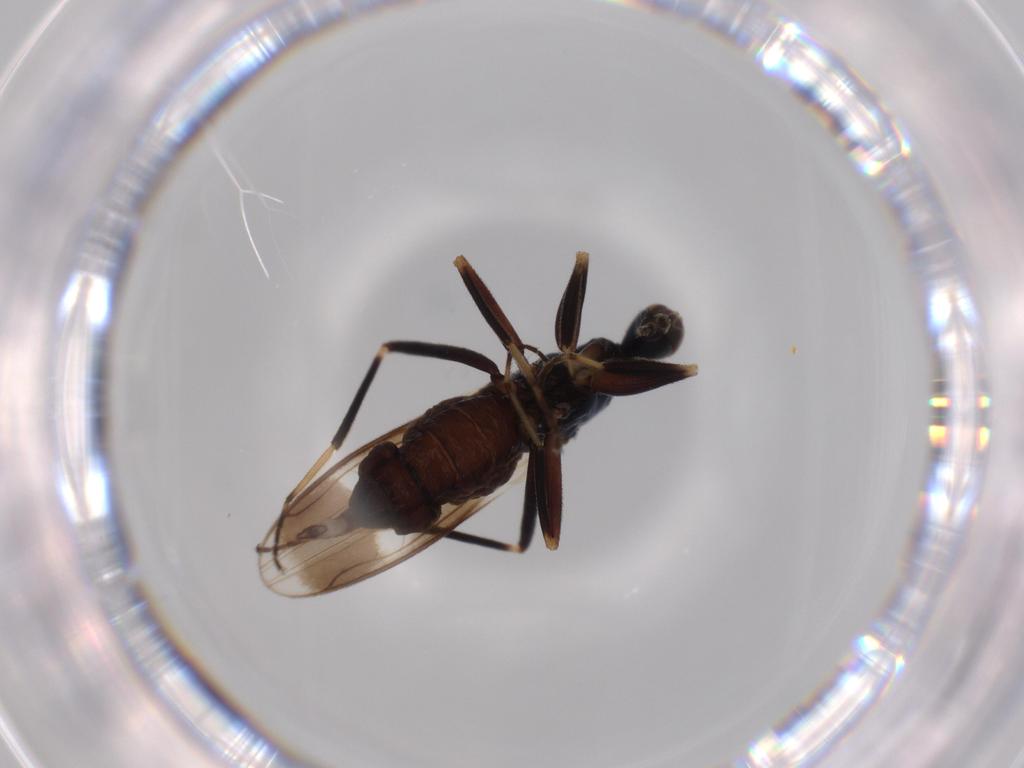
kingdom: Animalia
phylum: Arthropoda
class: Insecta
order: Diptera
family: Hybotidae
